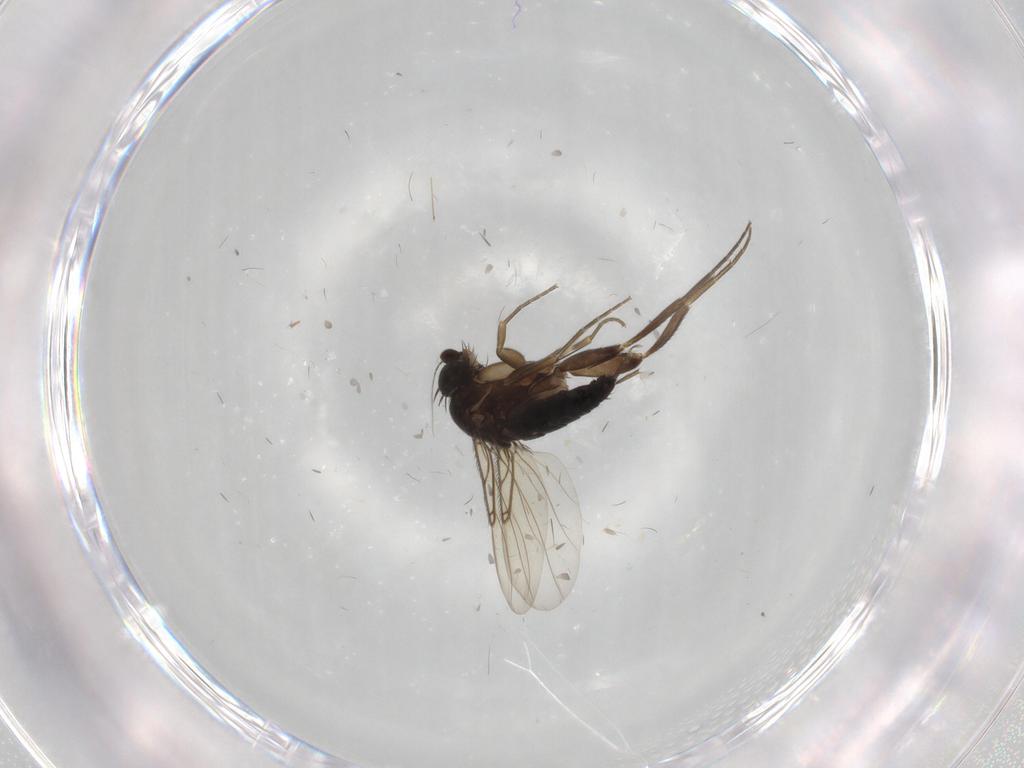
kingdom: Animalia
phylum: Arthropoda
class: Insecta
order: Diptera
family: Phoridae
